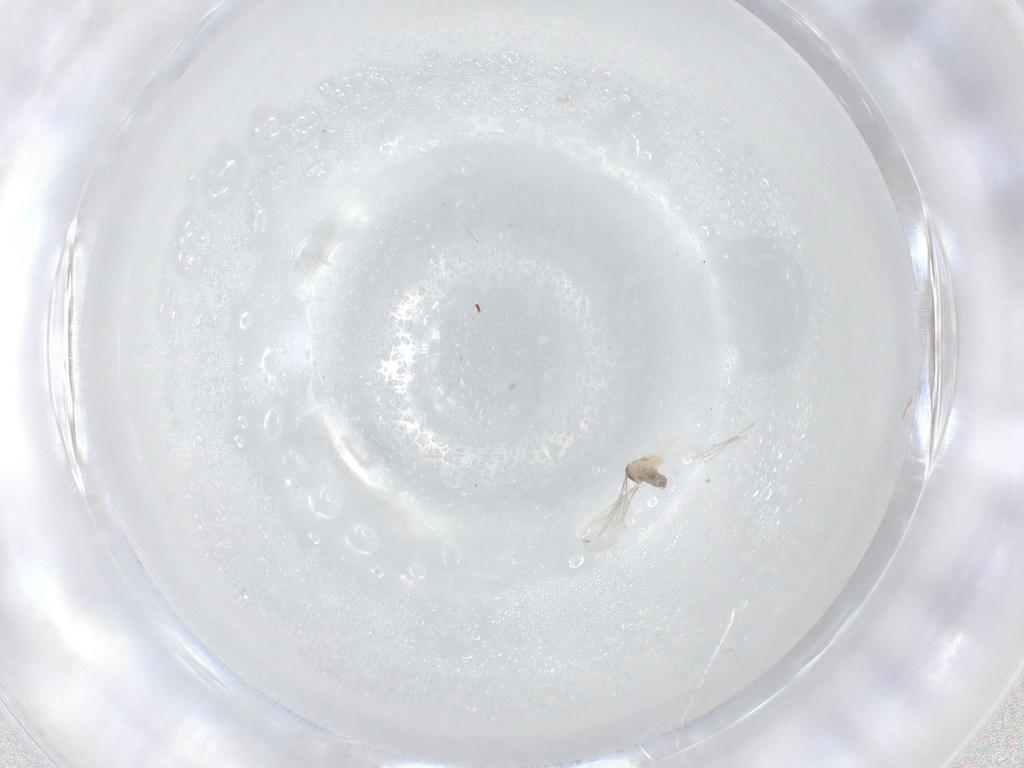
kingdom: Animalia
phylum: Arthropoda
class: Insecta
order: Diptera
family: Cecidomyiidae
